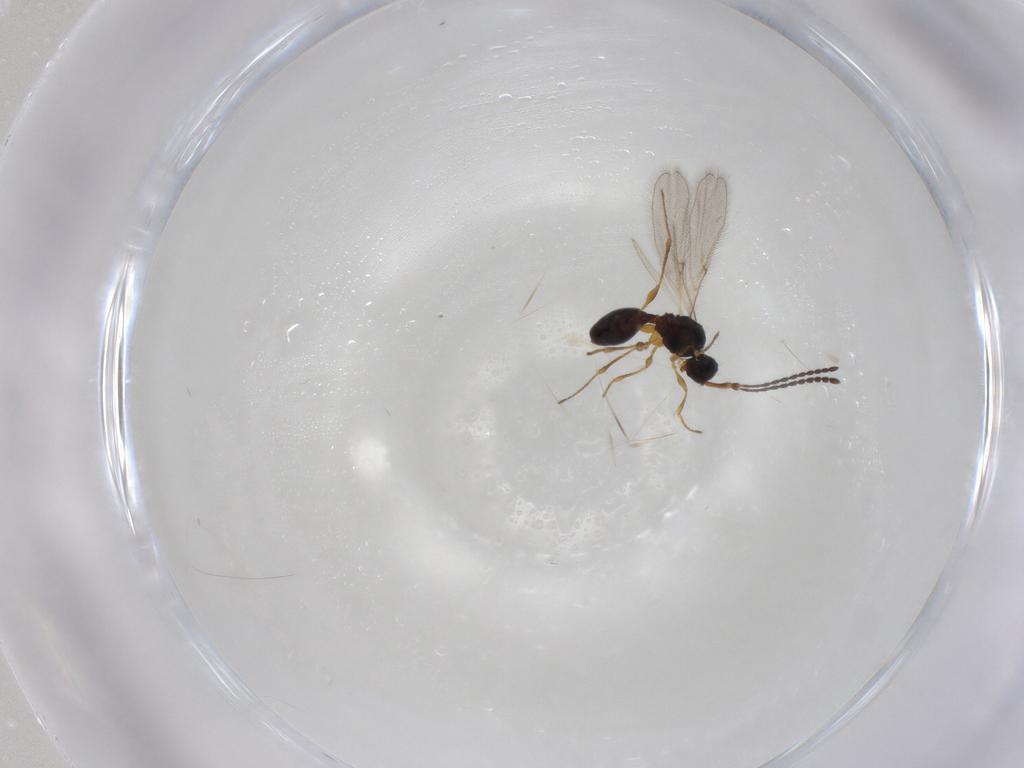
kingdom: Animalia
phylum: Arthropoda
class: Insecta
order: Hymenoptera
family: Diapriidae
